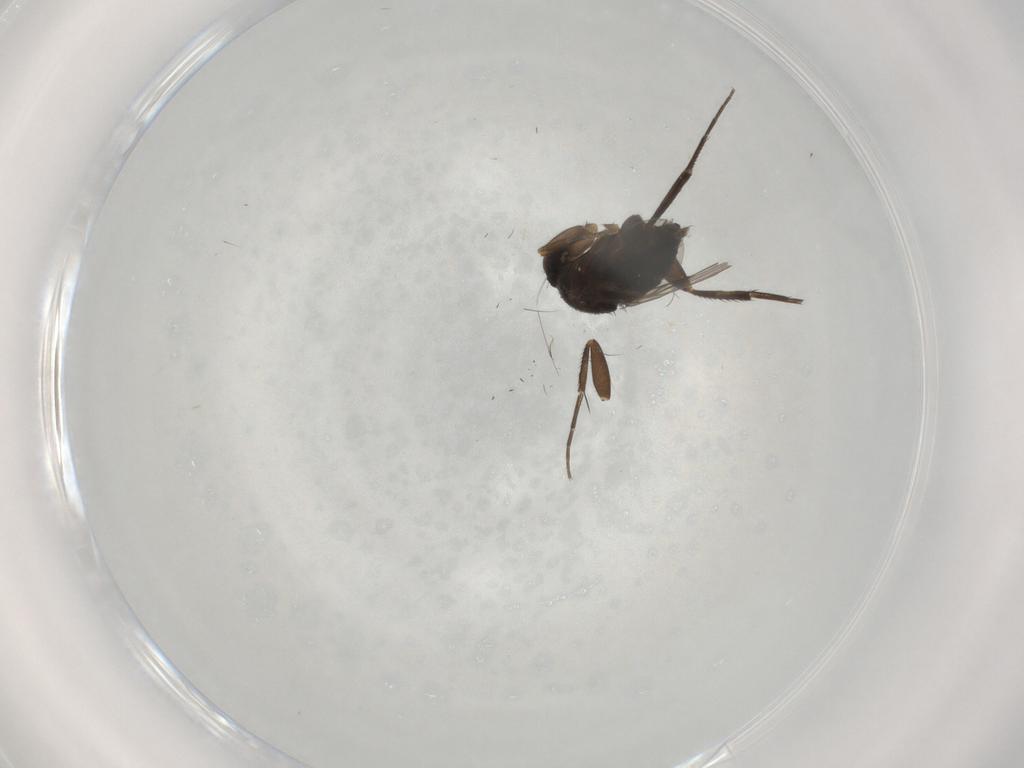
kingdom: Animalia
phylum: Arthropoda
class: Insecta
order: Diptera
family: Phoridae
